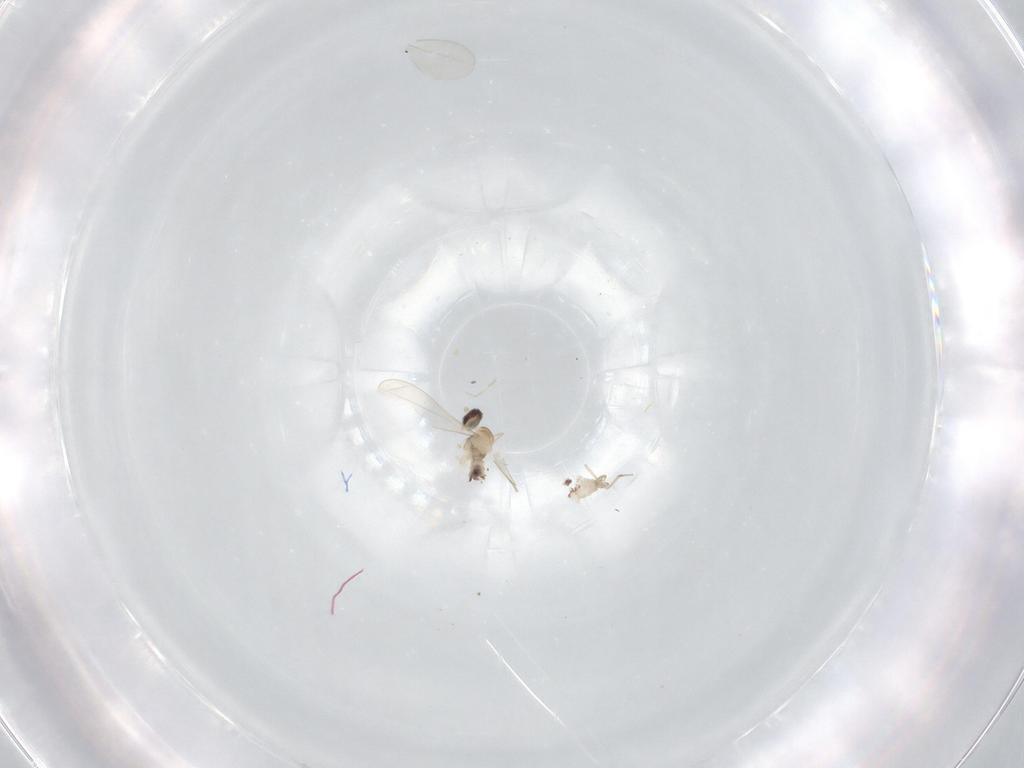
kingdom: Animalia
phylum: Arthropoda
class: Insecta
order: Diptera
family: Cecidomyiidae
